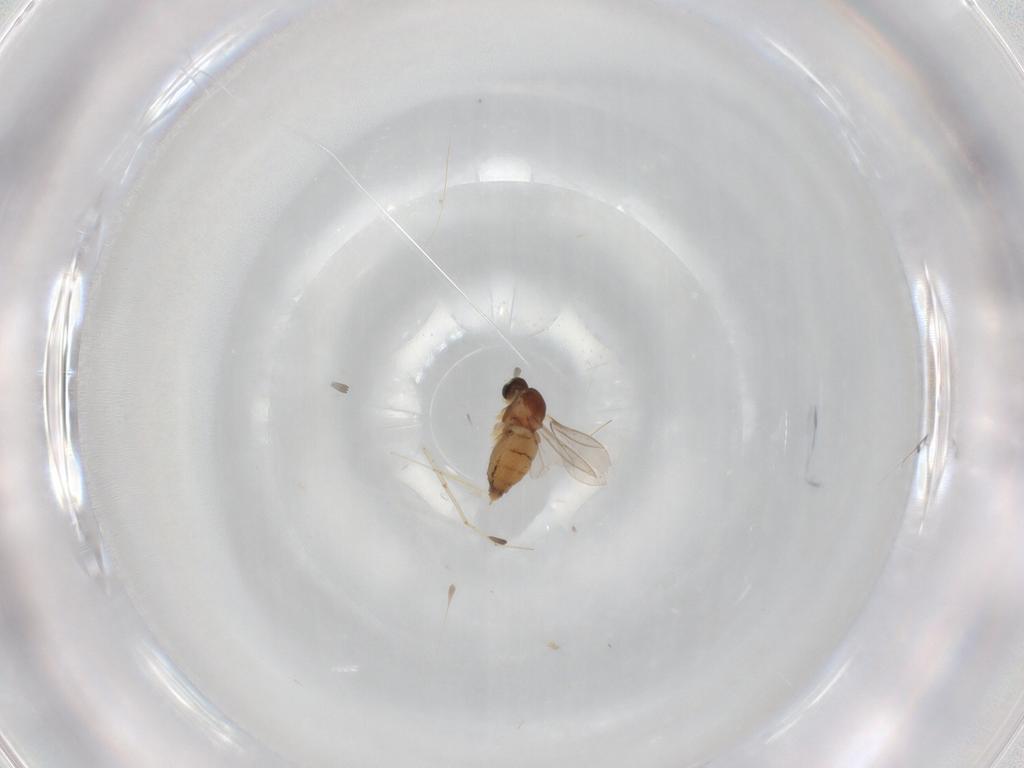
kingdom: Animalia
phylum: Arthropoda
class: Insecta
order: Diptera
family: Cecidomyiidae
